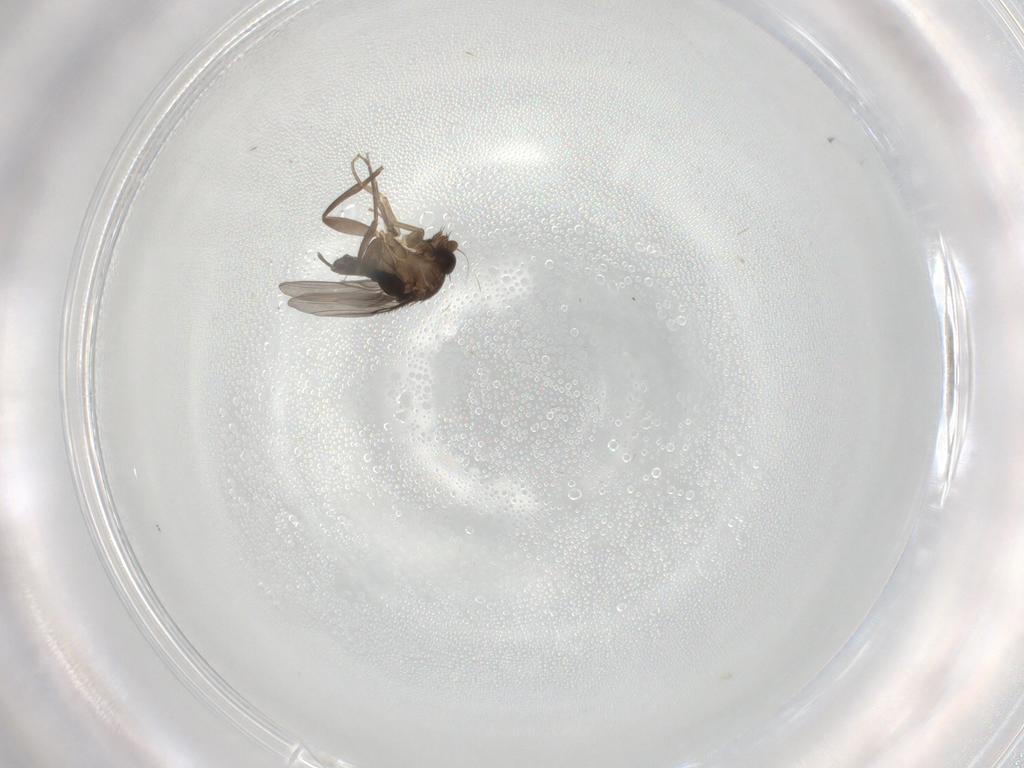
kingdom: Animalia
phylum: Arthropoda
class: Insecta
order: Diptera
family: Phoridae
